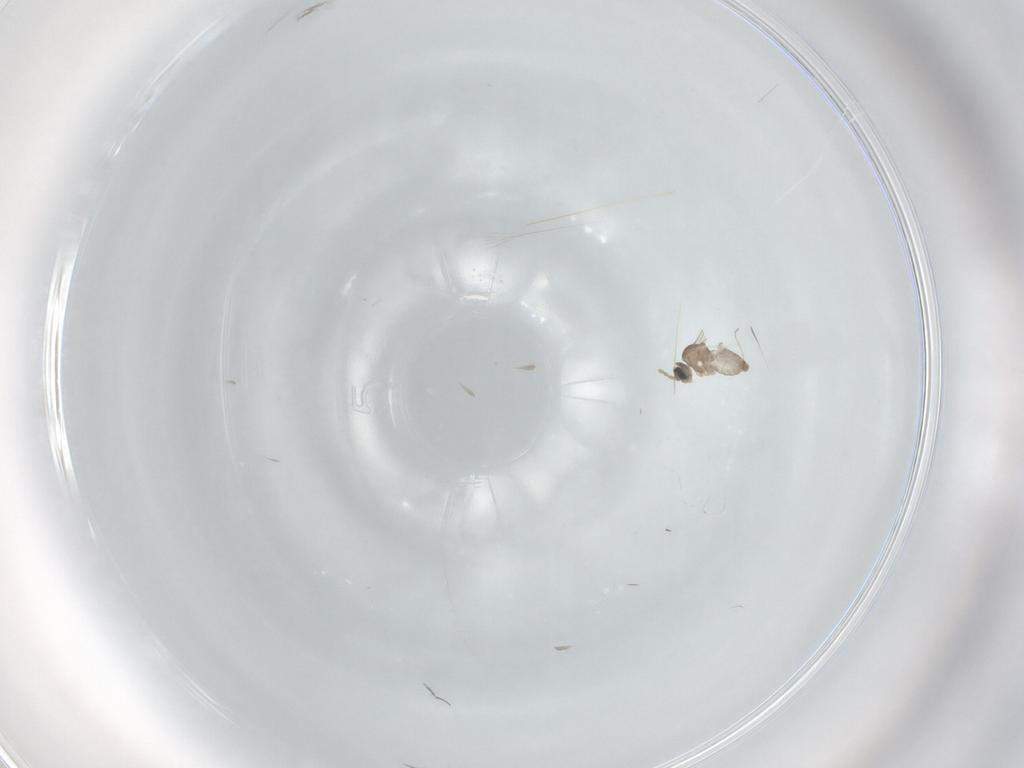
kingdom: Animalia
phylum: Arthropoda
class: Insecta
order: Diptera
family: Cecidomyiidae
